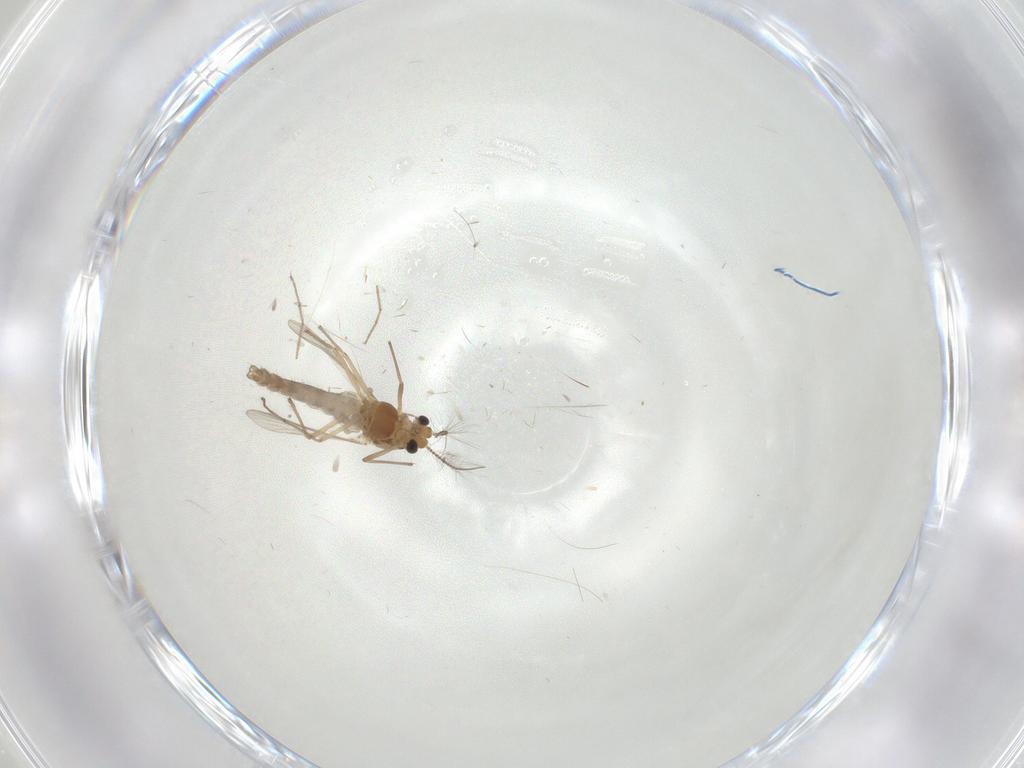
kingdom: Animalia
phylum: Arthropoda
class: Insecta
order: Diptera
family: Chironomidae
